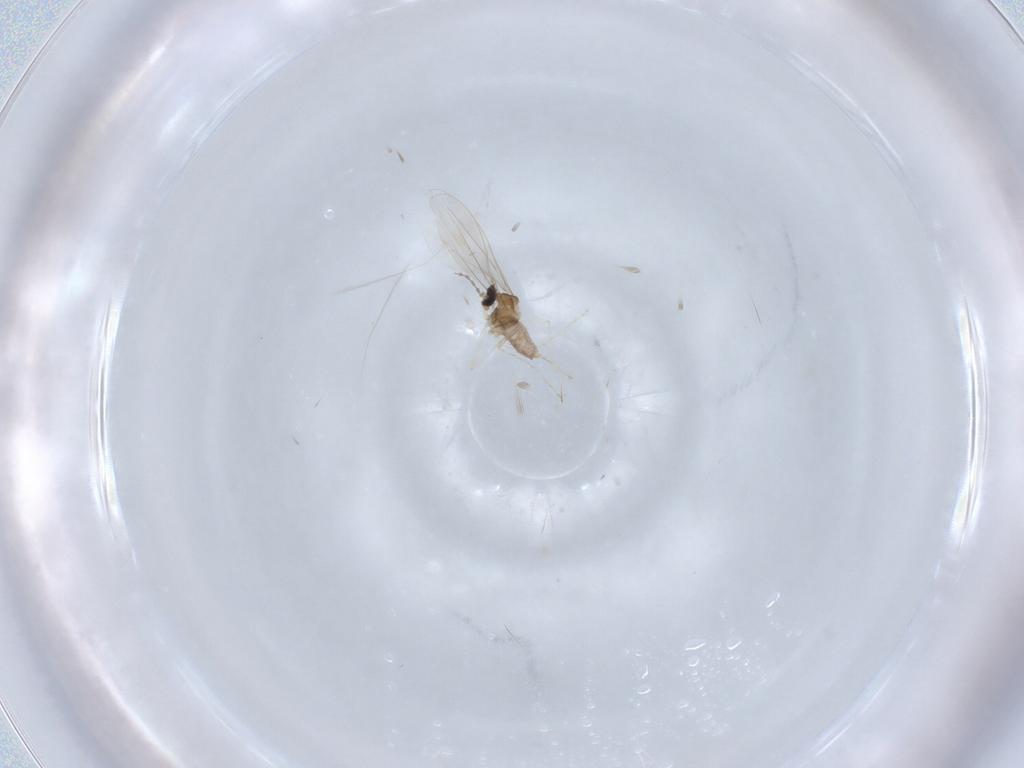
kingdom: Animalia
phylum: Arthropoda
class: Insecta
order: Diptera
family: Cecidomyiidae
